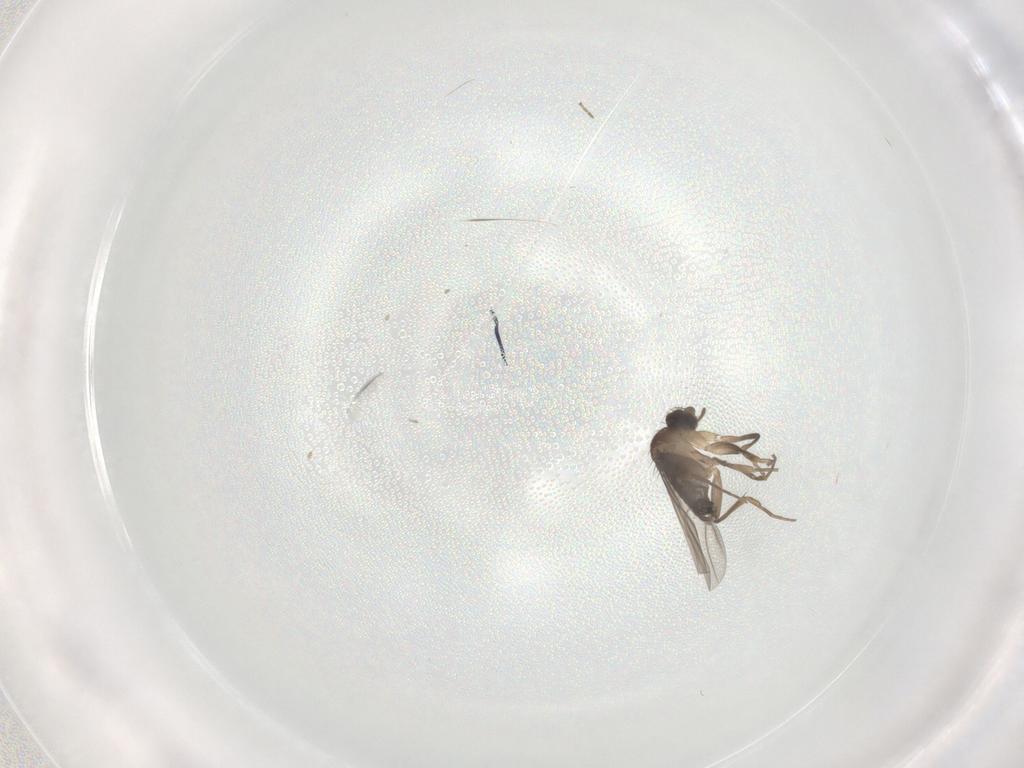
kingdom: Animalia
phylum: Arthropoda
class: Insecta
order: Diptera
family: Phoridae
